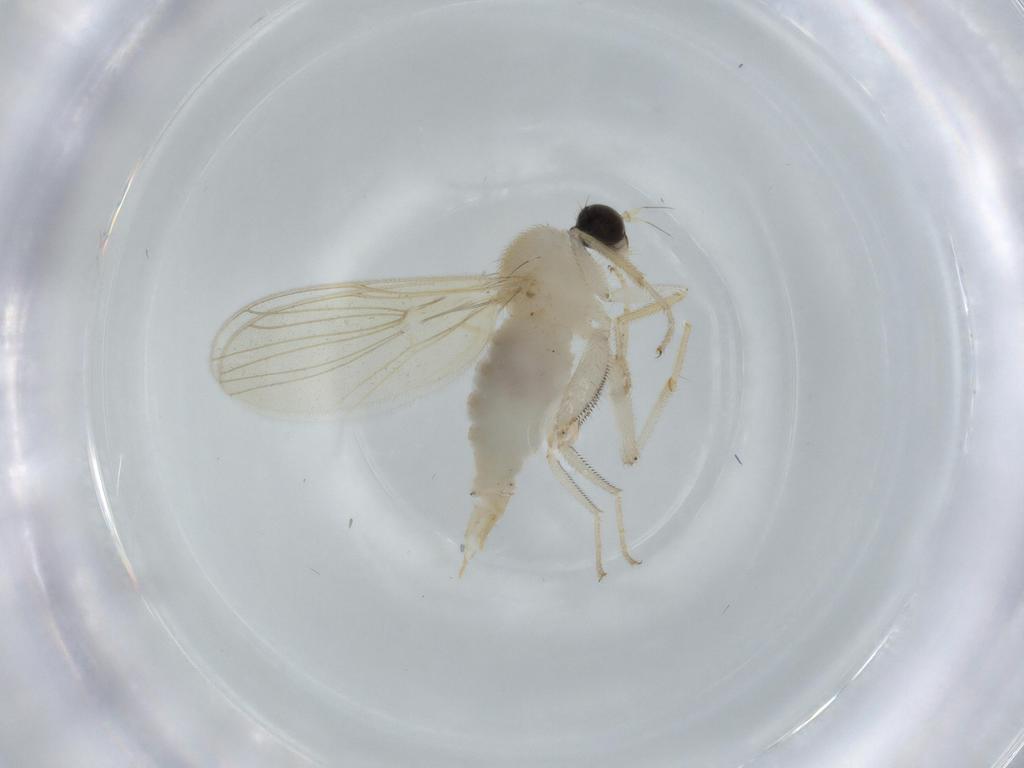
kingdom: Animalia
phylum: Arthropoda
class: Insecta
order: Diptera
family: Hybotidae
